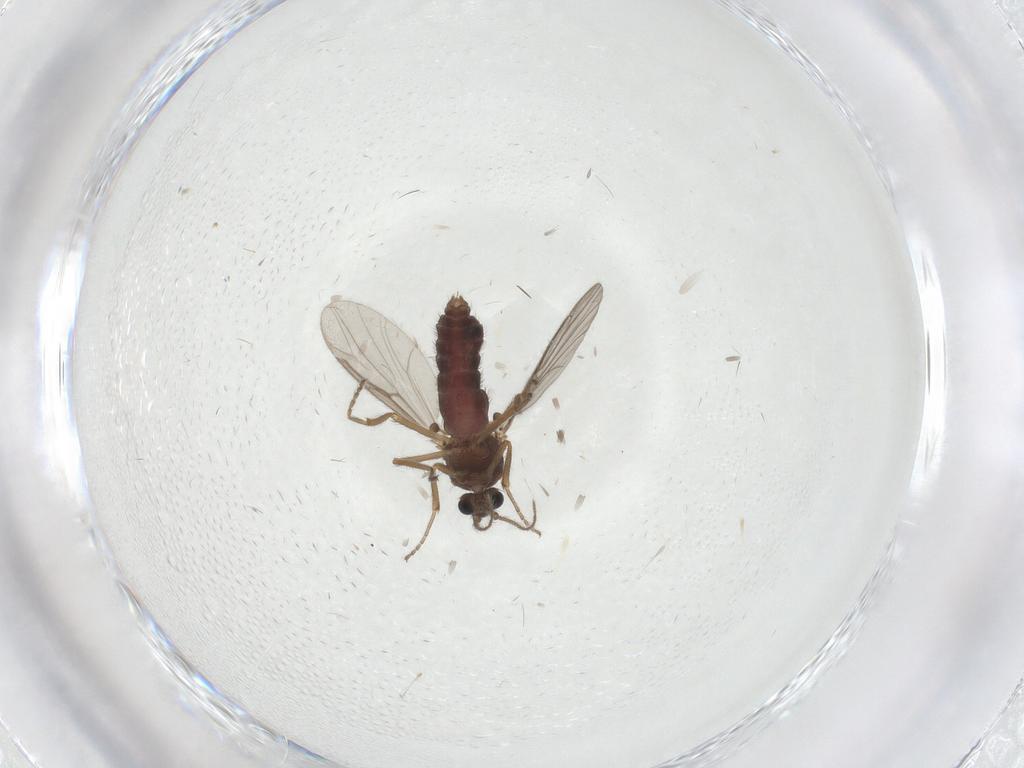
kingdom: Animalia
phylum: Arthropoda
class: Insecta
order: Diptera
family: Ceratopogonidae
